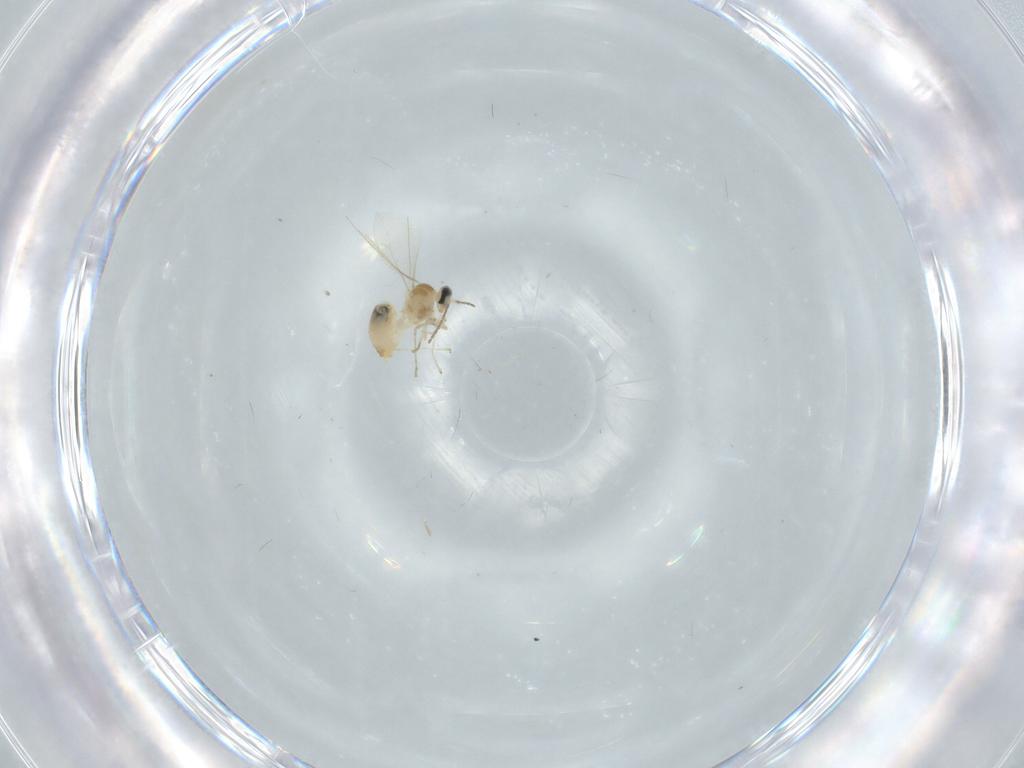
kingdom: Animalia
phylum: Arthropoda
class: Insecta
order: Diptera
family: Cecidomyiidae
